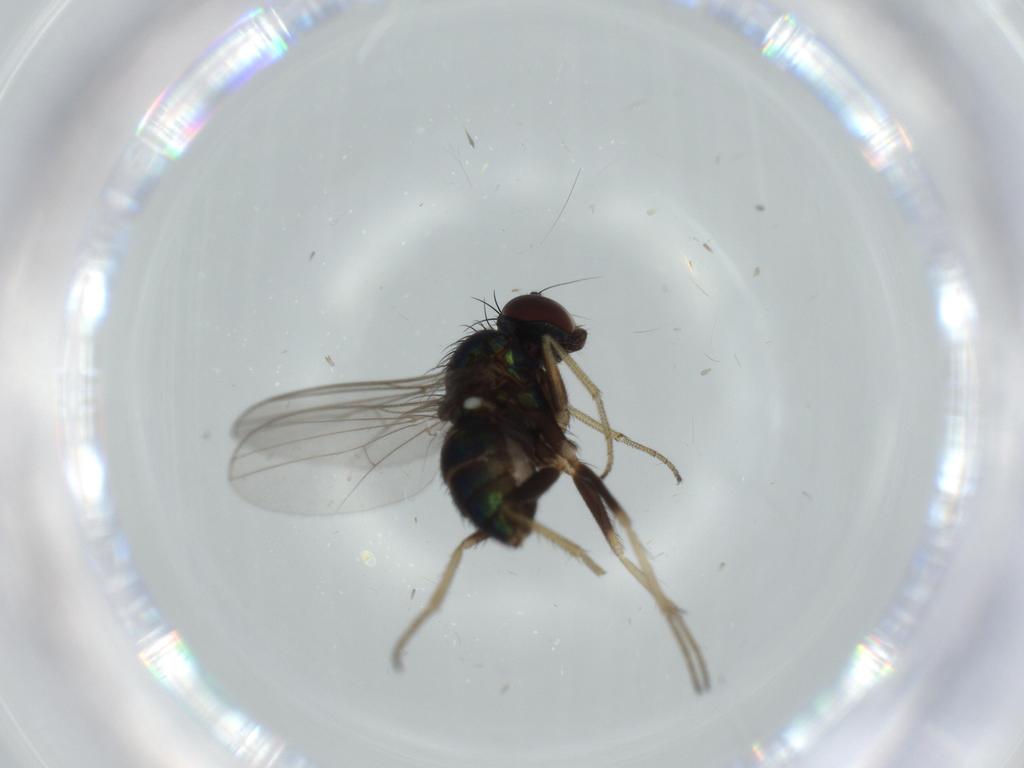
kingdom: Animalia
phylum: Arthropoda
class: Insecta
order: Diptera
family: Dolichopodidae
